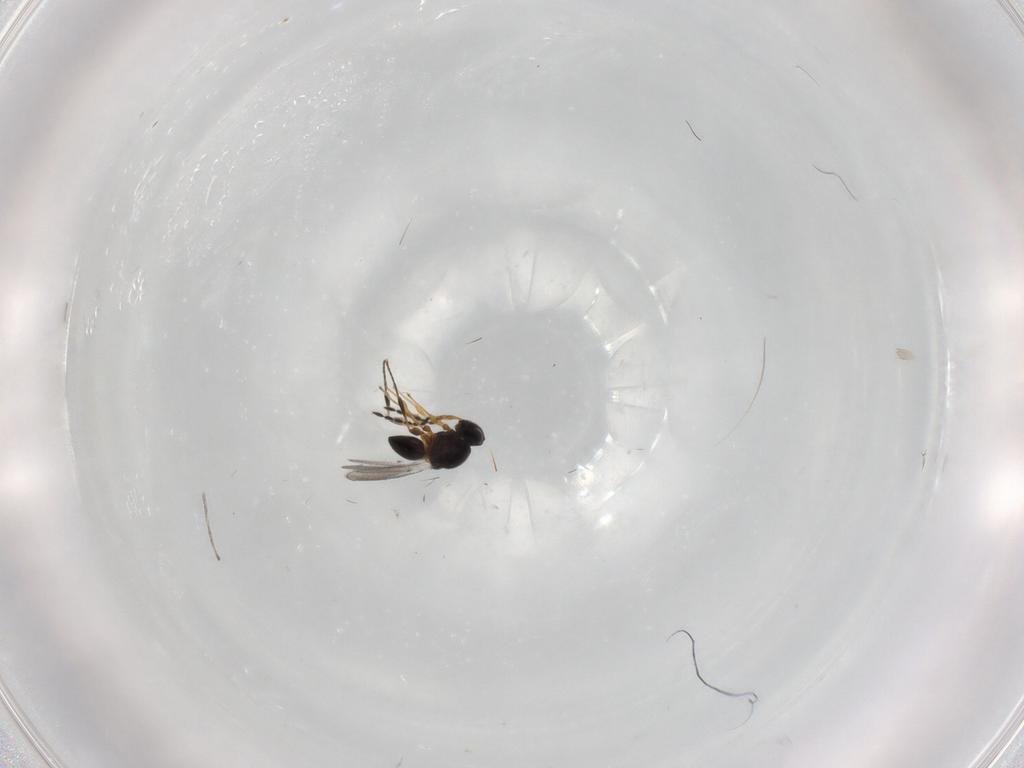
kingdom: Animalia
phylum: Arthropoda
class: Insecta
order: Hymenoptera
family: Platygastridae
